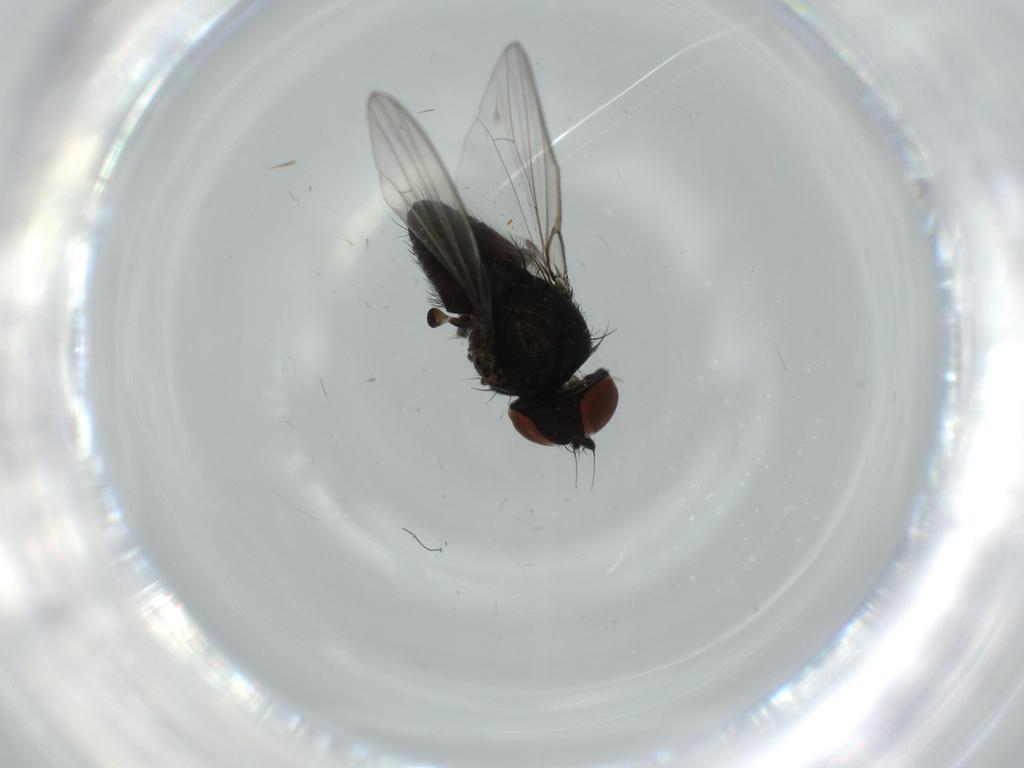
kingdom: Animalia
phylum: Arthropoda
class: Insecta
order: Diptera
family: Milichiidae
